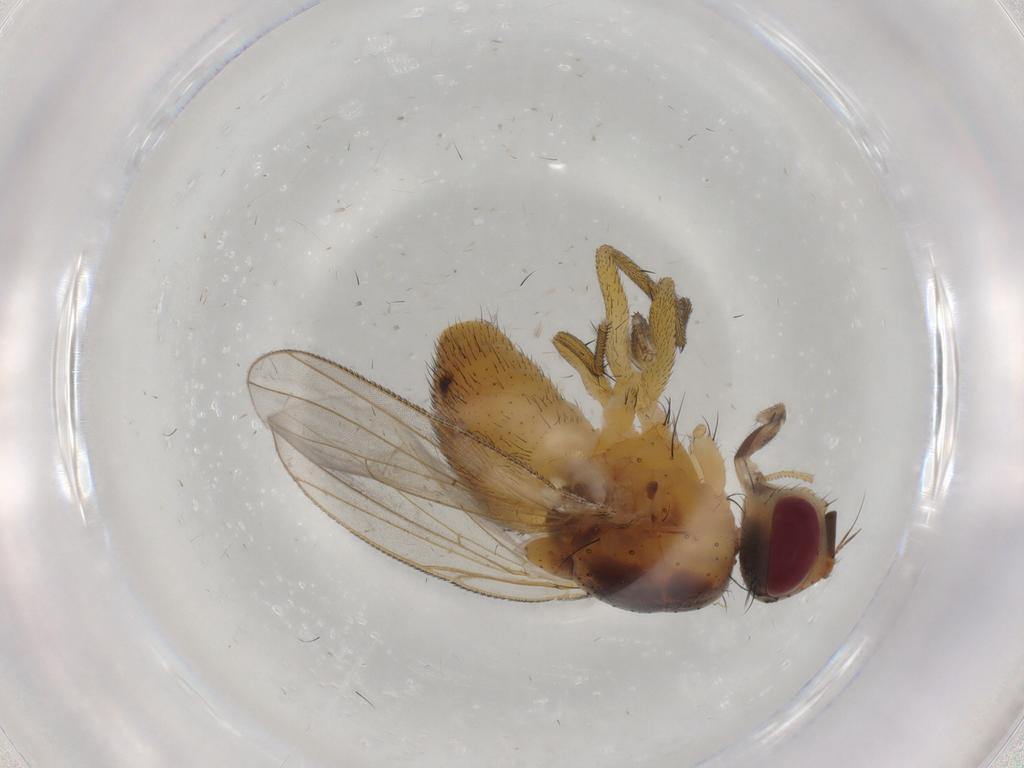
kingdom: Animalia
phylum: Arthropoda
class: Insecta
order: Diptera
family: Muscidae
